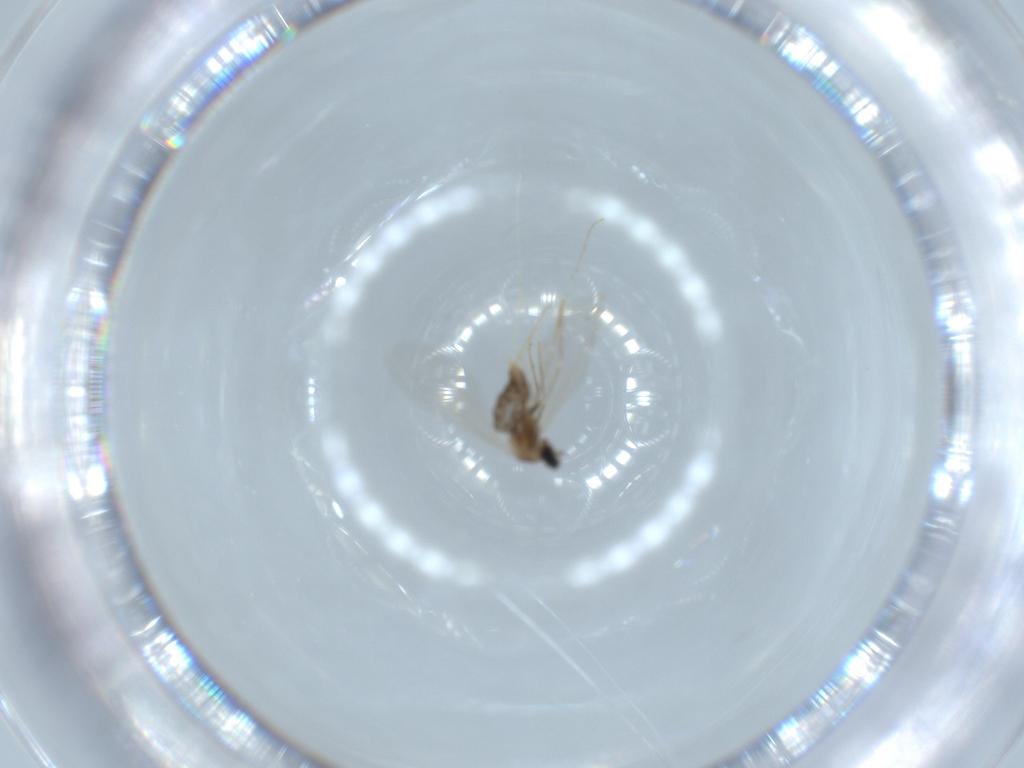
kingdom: Animalia
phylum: Arthropoda
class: Insecta
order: Diptera
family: Cecidomyiidae
